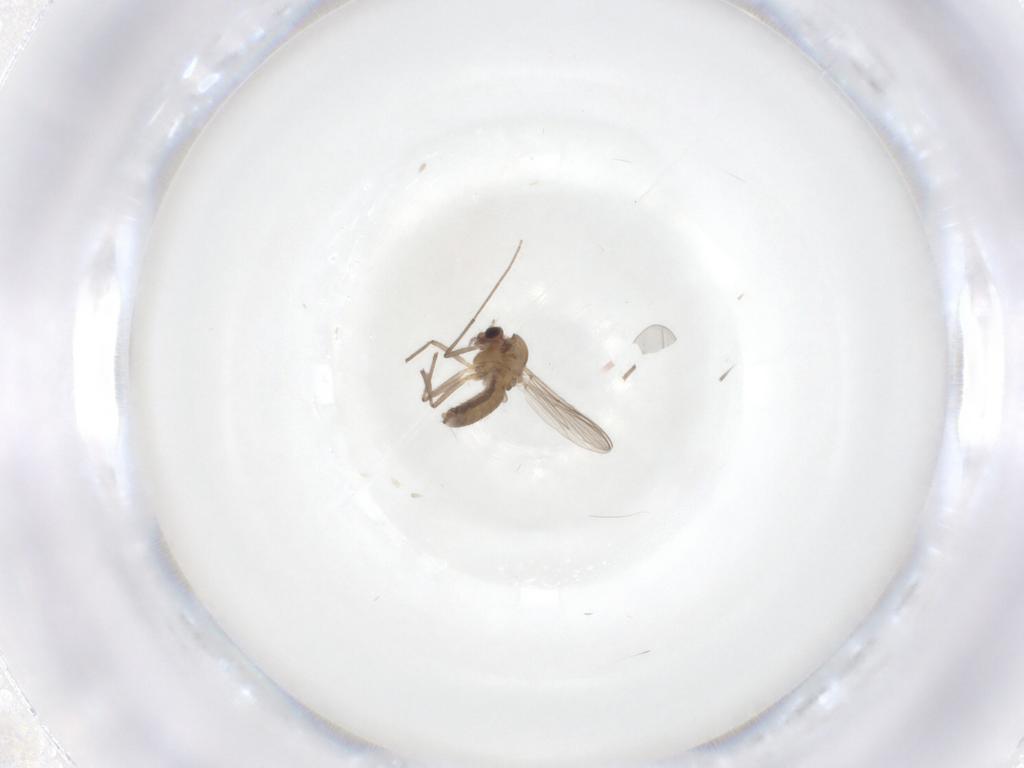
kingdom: Animalia
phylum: Arthropoda
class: Insecta
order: Diptera
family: Chironomidae
